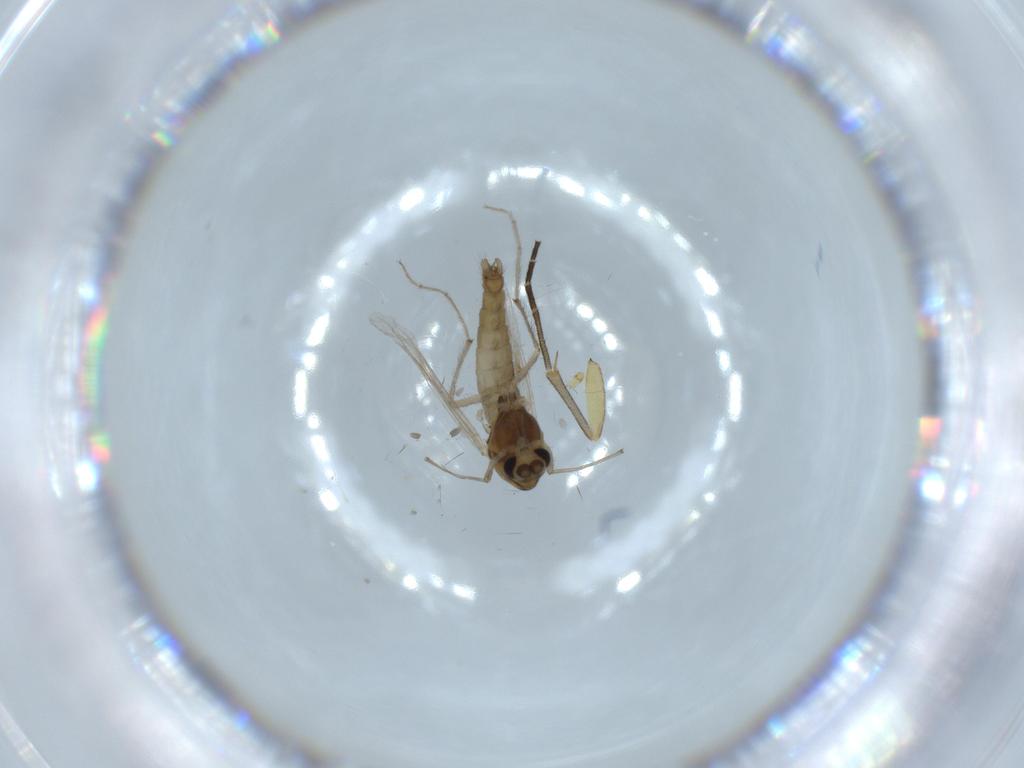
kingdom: Animalia
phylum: Arthropoda
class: Insecta
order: Diptera
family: Chironomidae
